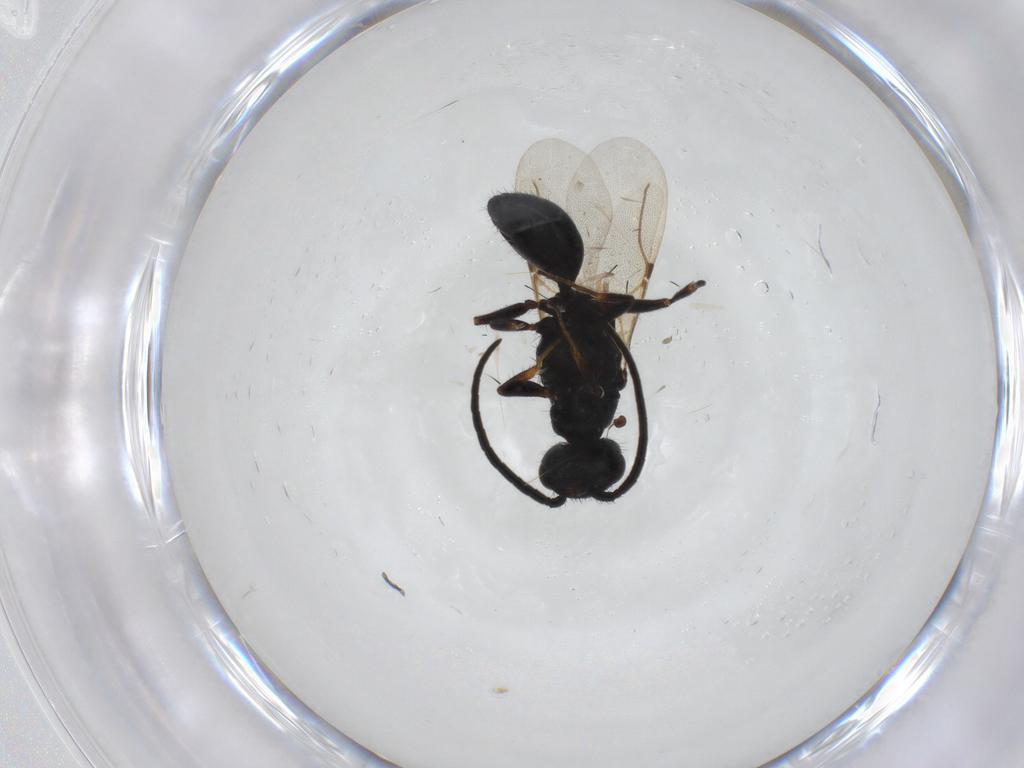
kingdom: Animalia
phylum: Arthropoda
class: Insecta
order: Hymenoptera
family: Bethylidae
